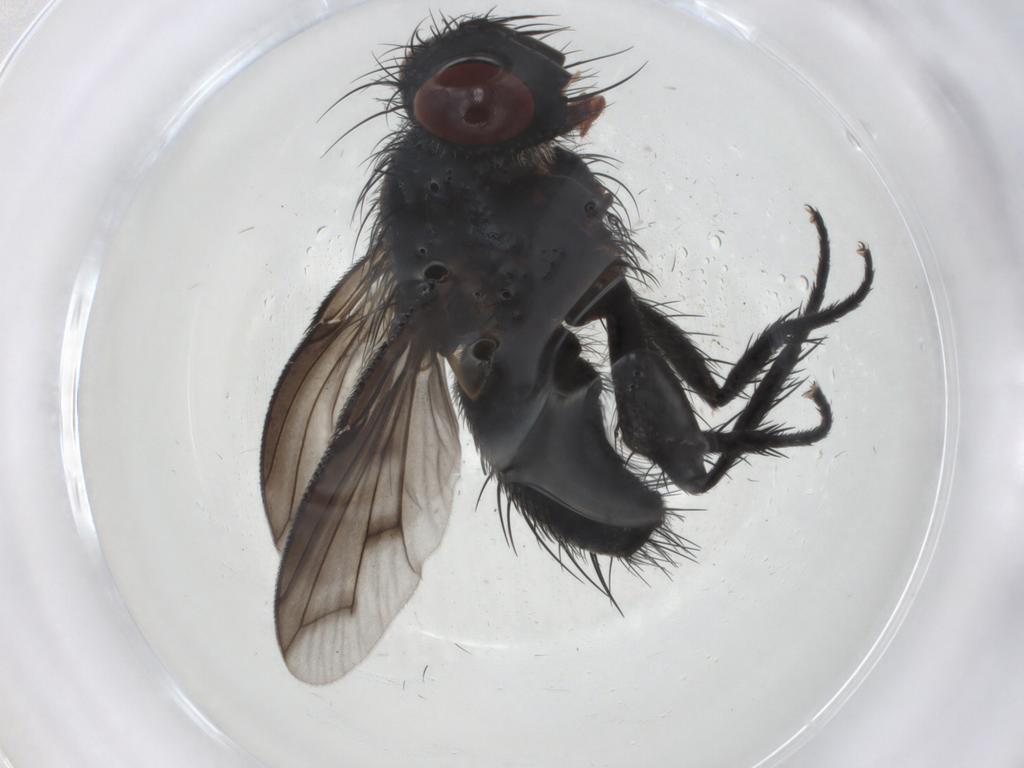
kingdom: Animalia
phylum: Arthropoda
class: Insecta
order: Diptera
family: Tachinidae
